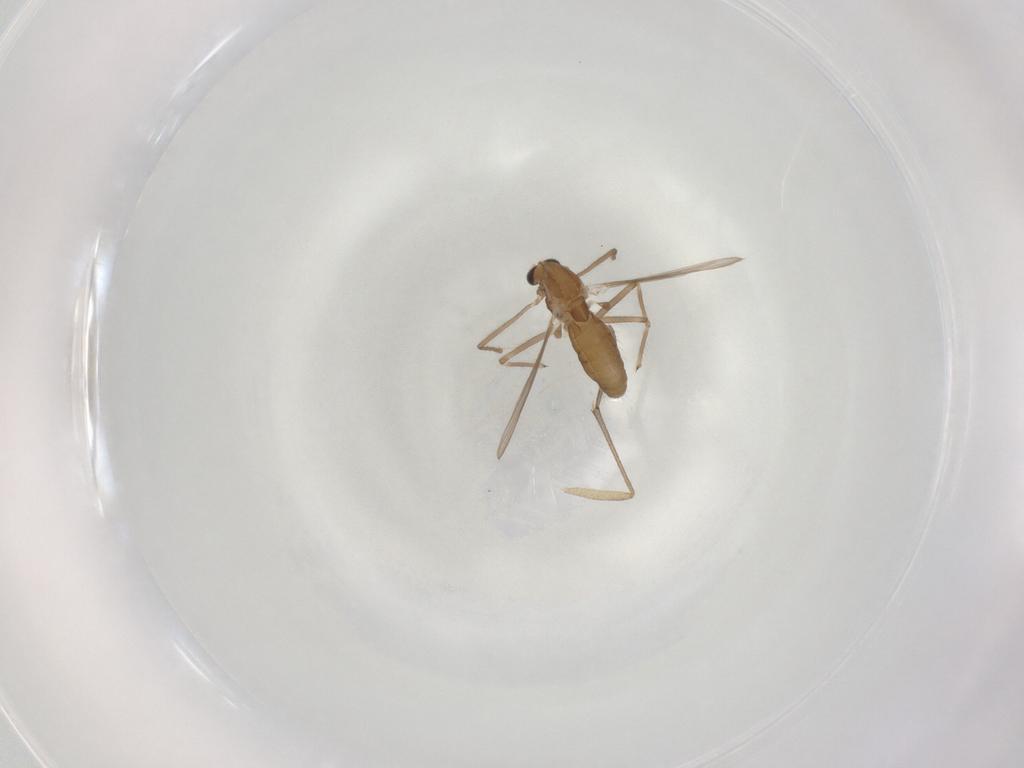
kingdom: Animalia
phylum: Arthropoda
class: Insecta
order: Diptera
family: Chironomidae
